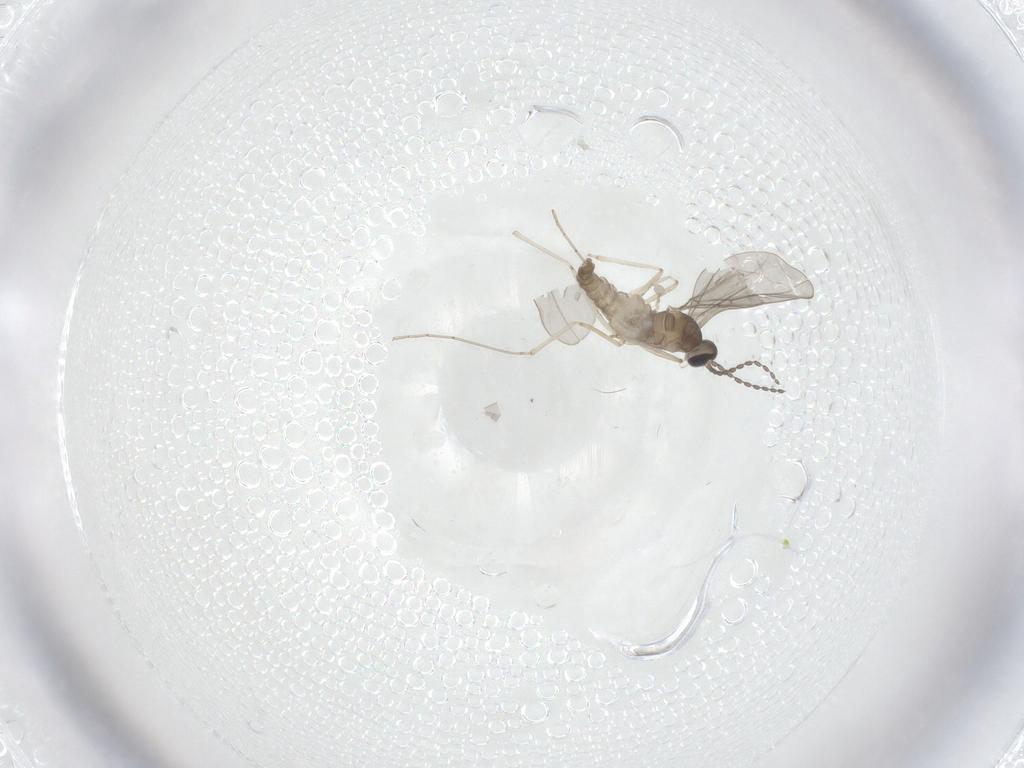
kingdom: Animalia
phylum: Arthropoda
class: Insecta
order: Diptera
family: Cecidomyiidae
